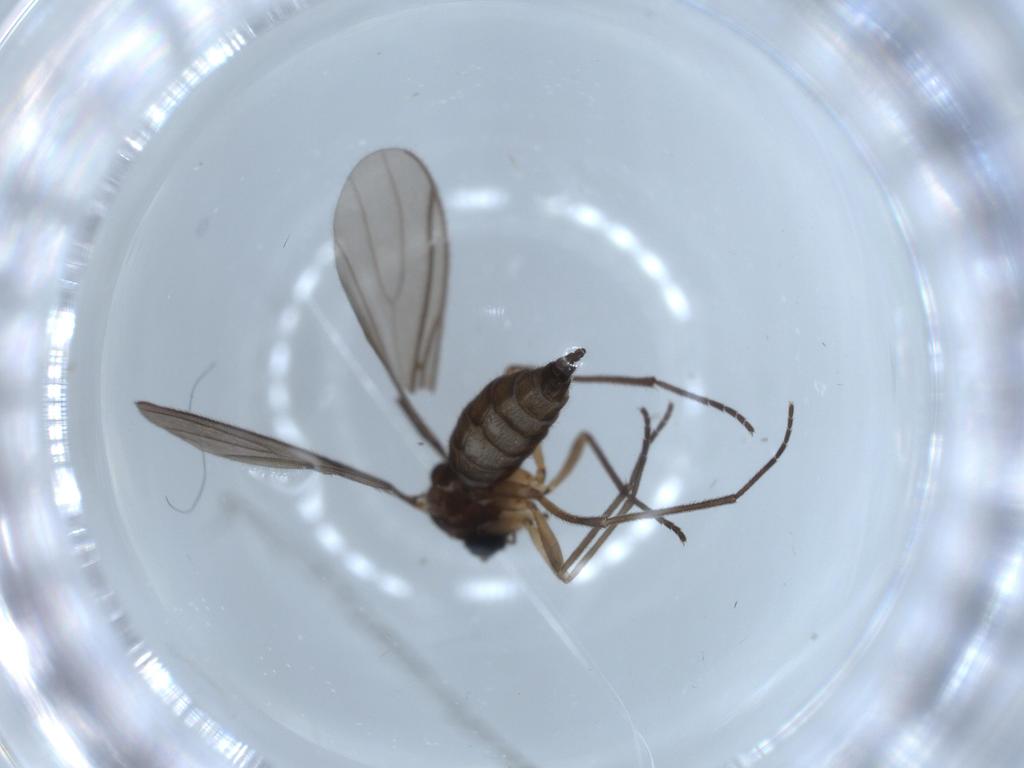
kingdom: Animalia
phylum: Arthropoda
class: Insecta
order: Diptera
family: Sciaridae
